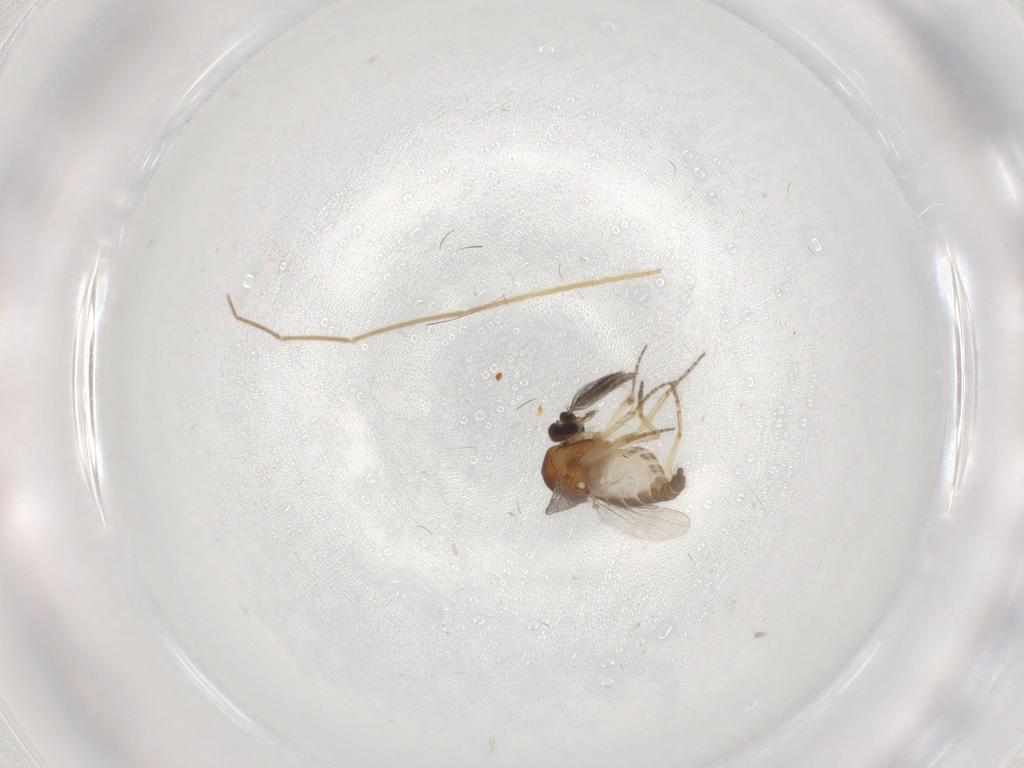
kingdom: Animalia
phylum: Arthropoda
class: Insecta
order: Diptera
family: Ceratopogonidae
